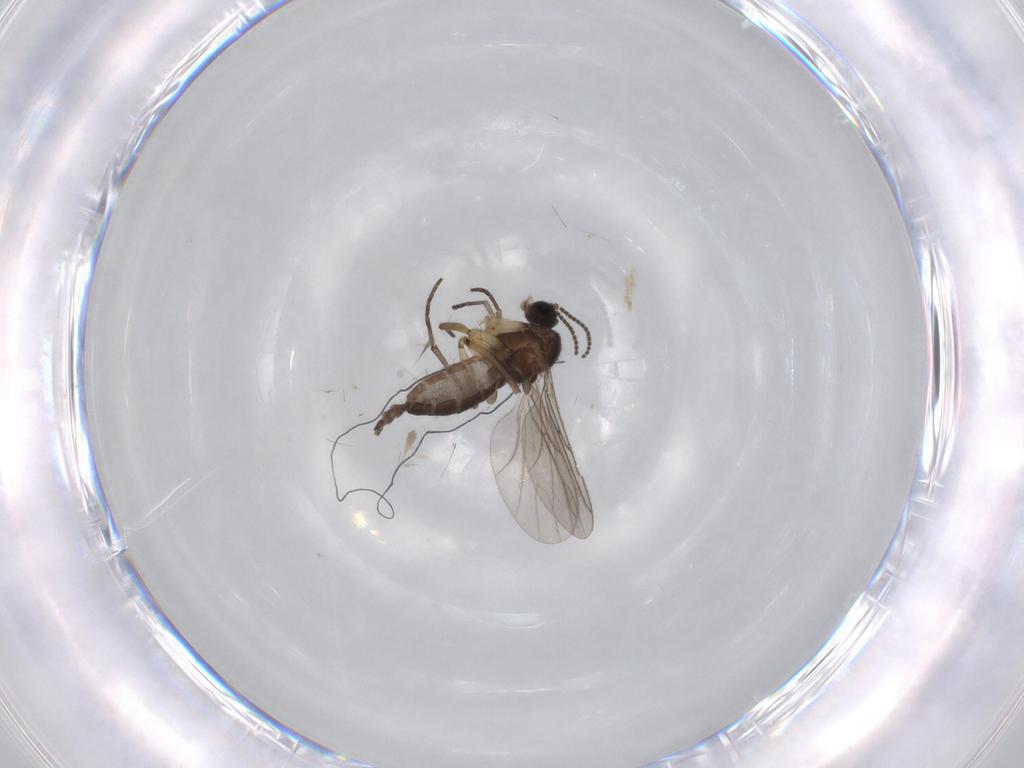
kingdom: Animalia
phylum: Arthropoda
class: Insecta
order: Diptera
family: Sciaridae
